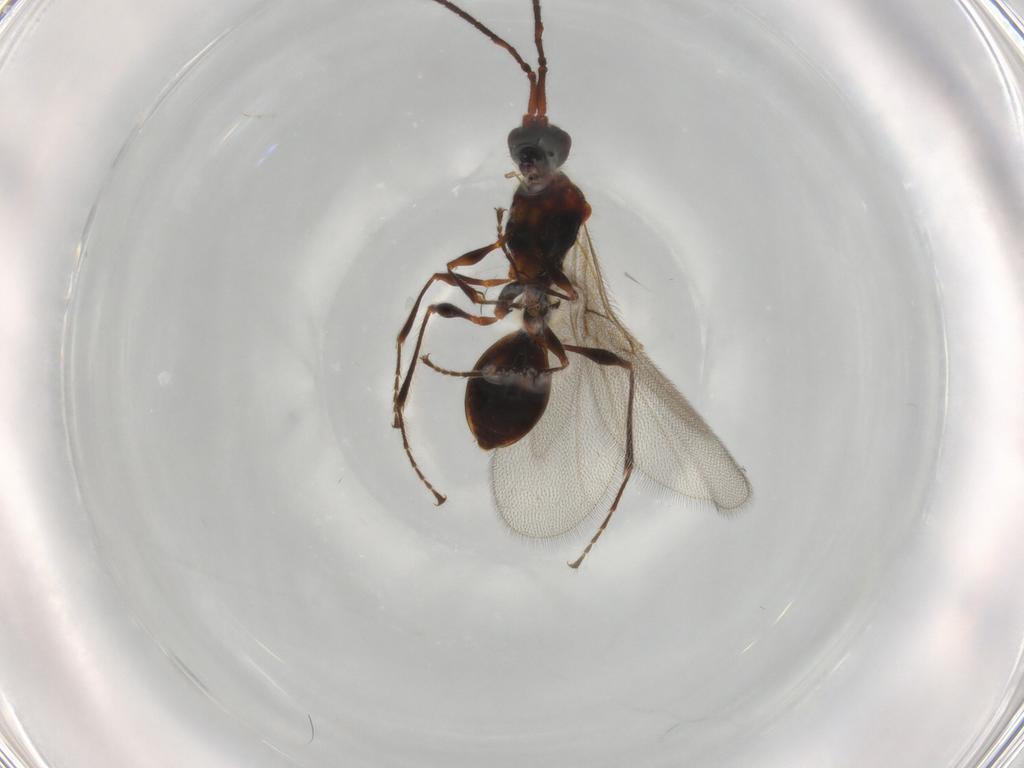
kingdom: Animalia
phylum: Arthropoda
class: Insecta
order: Hymenoptera
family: Diapriidae
